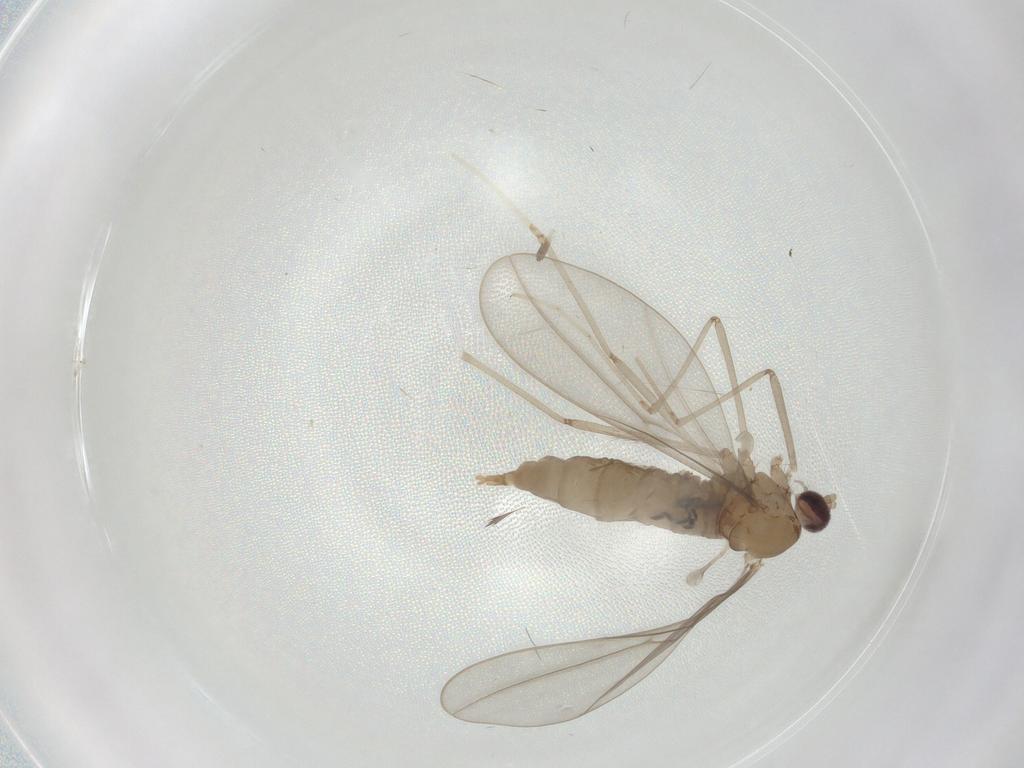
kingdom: Animalia
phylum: Arthropoda
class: Insecta
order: Diptera
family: Cecidomyiidae
